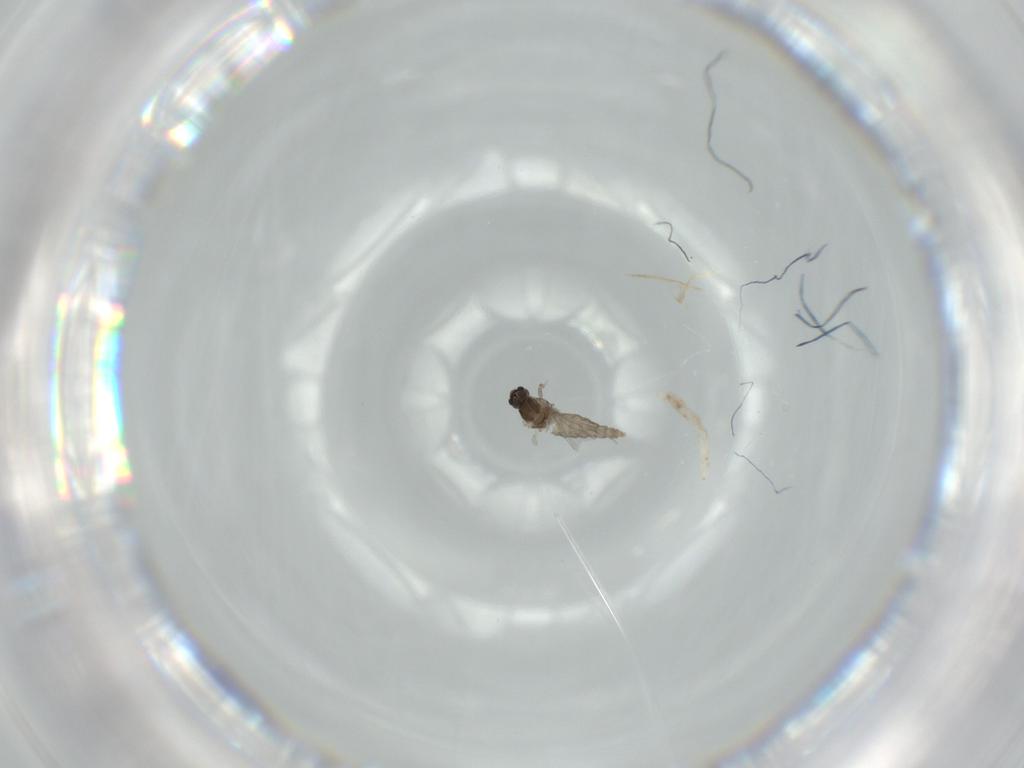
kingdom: Animalia
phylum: Arthropoda
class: Insecta
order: Diptera
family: Cecidomyiidae
